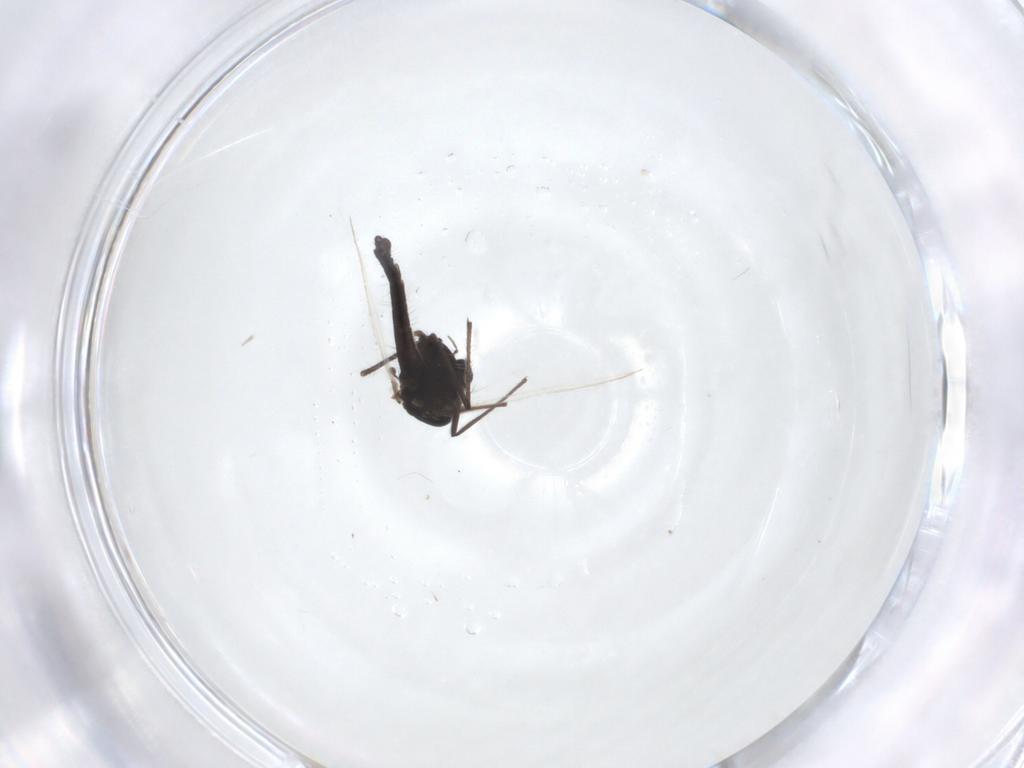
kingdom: Animalia
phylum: Arthropoda
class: Insecta
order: Diptera
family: Chironomidae
